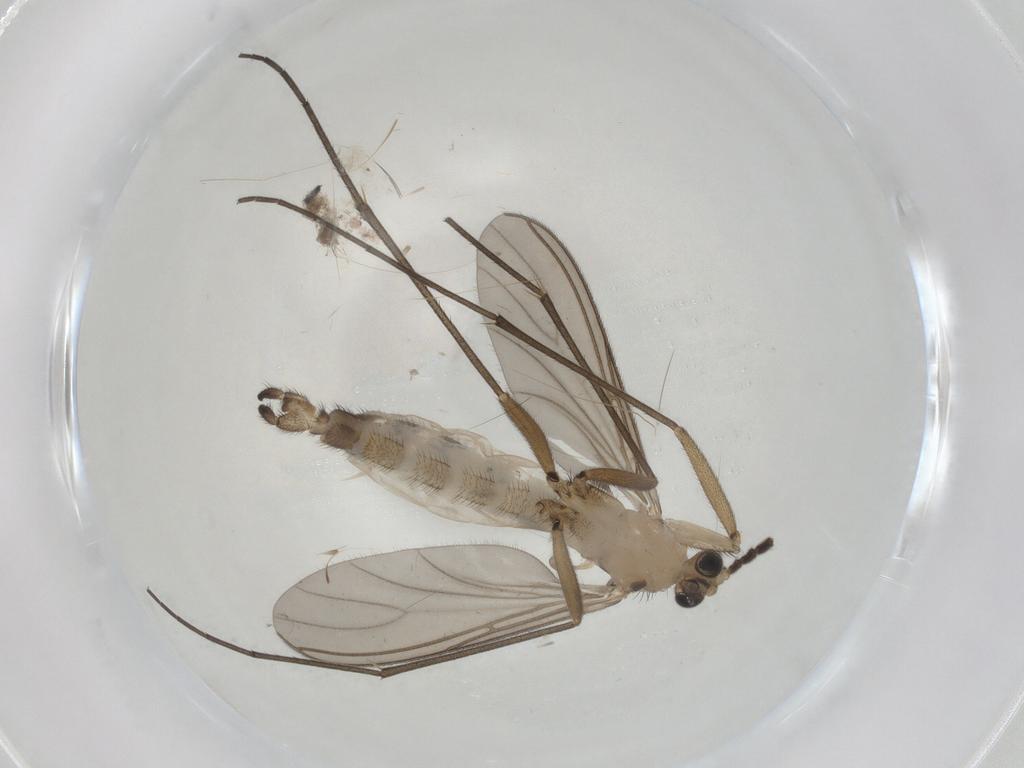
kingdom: Animalia
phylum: Arthropoda
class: Insecta
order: Diptera
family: Sciaridae
